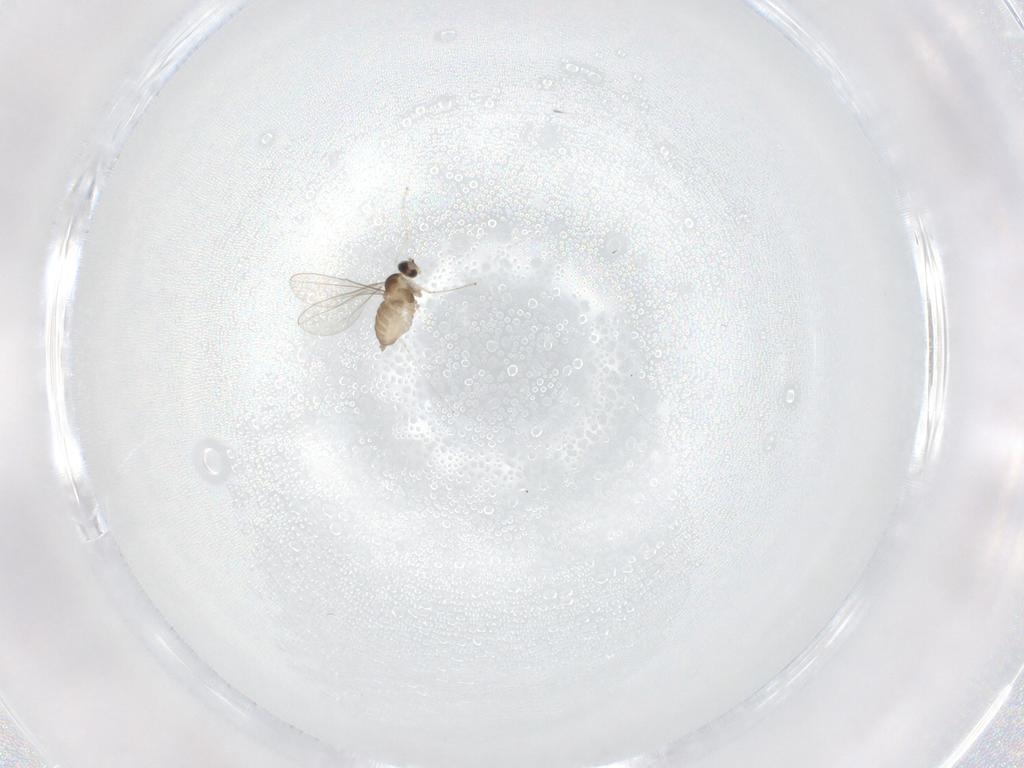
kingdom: Animalia
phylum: Arthropoda
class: Insecta
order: Diptera
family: Cecidomyiidae
